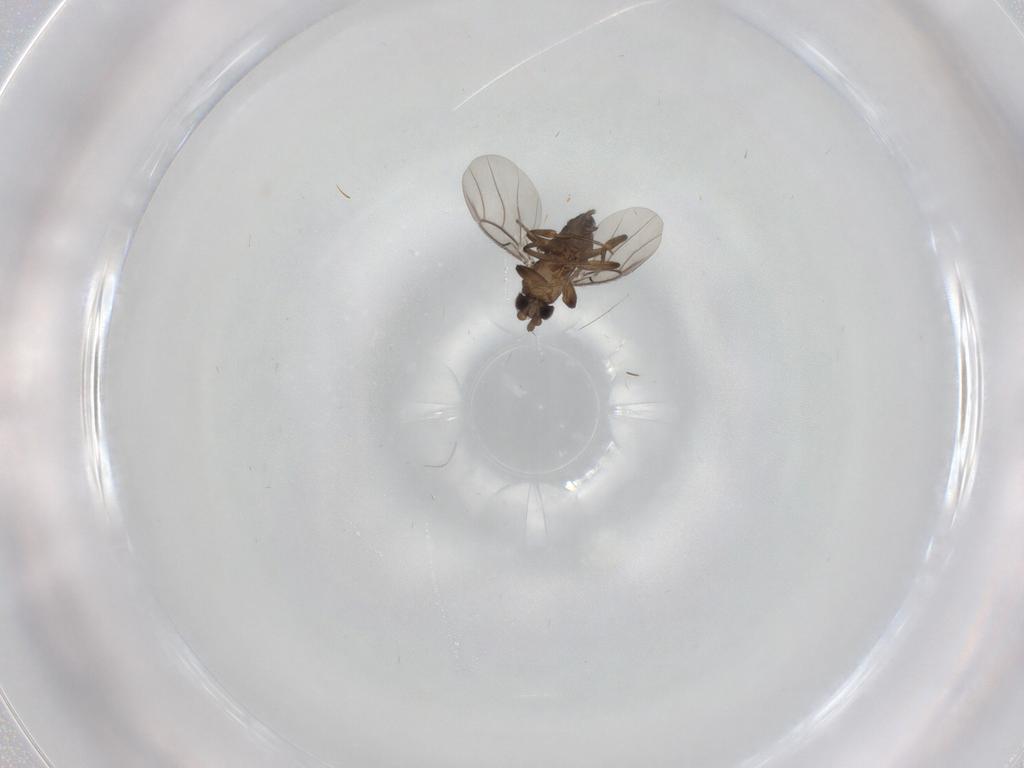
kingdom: Animalia
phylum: Arthropoda
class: Insecta
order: Diptera
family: Phoridae
